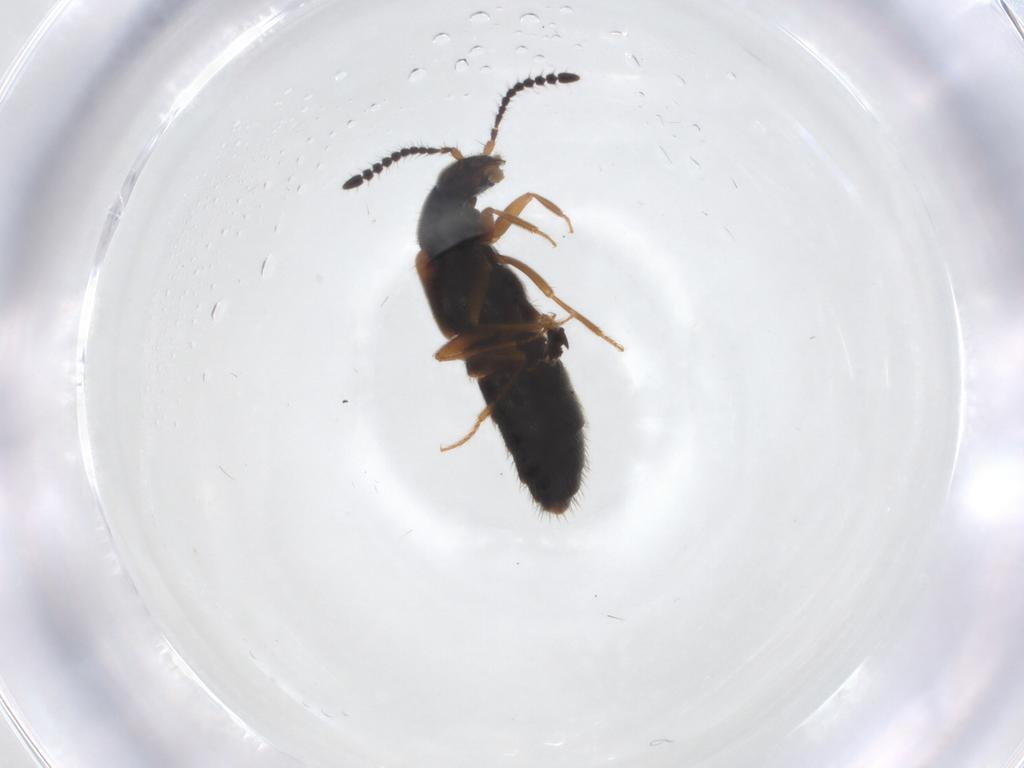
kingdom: Animalia
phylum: Arthropoda
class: Insecta
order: Coleoptera
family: Staphylinidae
